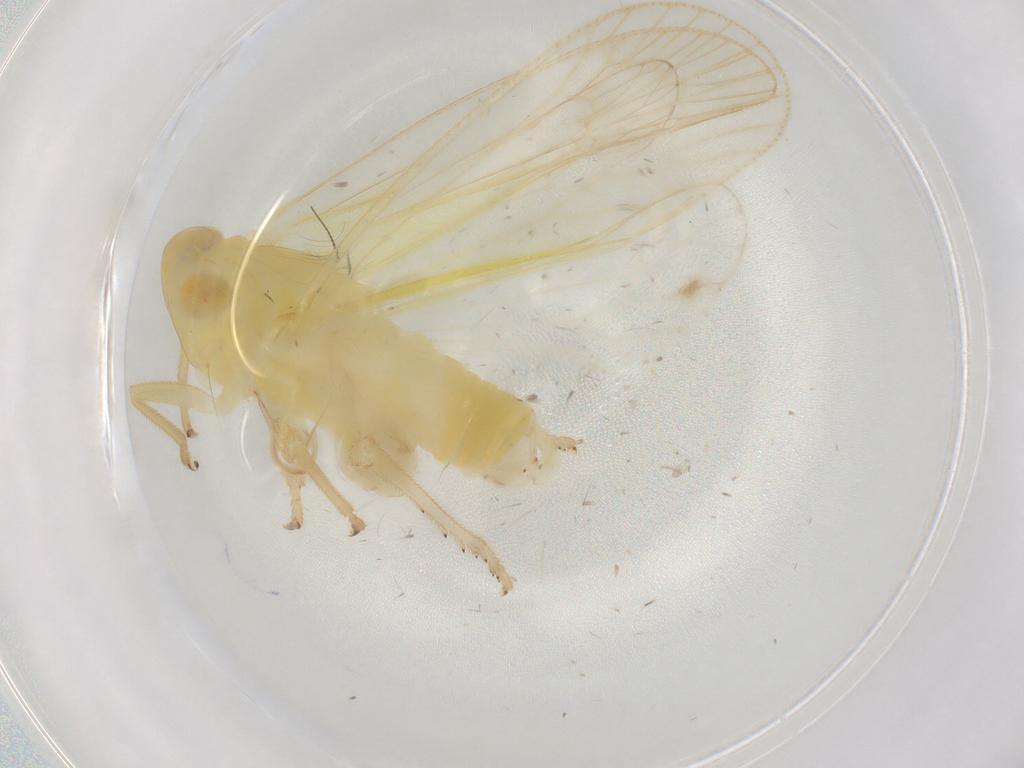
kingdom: Animalia
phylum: Arthropoda
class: Insecta
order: Hemiptera
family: Tropiduchidae
